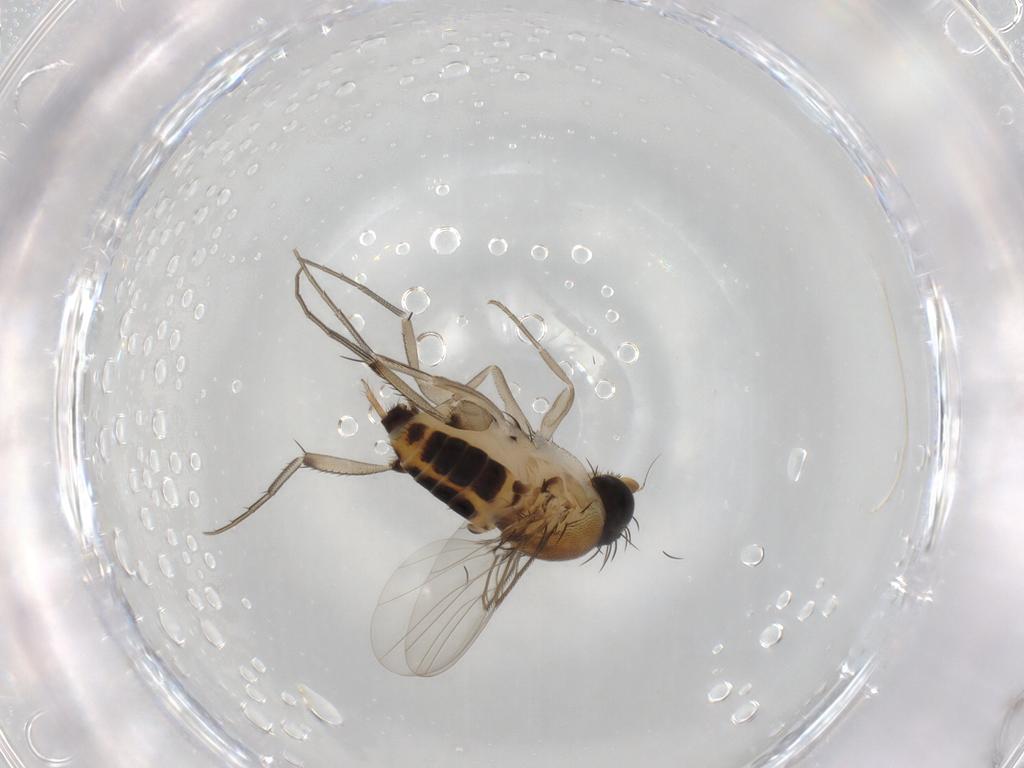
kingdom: Animalia
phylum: Arthropoda
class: Insecta
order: Diptera
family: Phoridae
